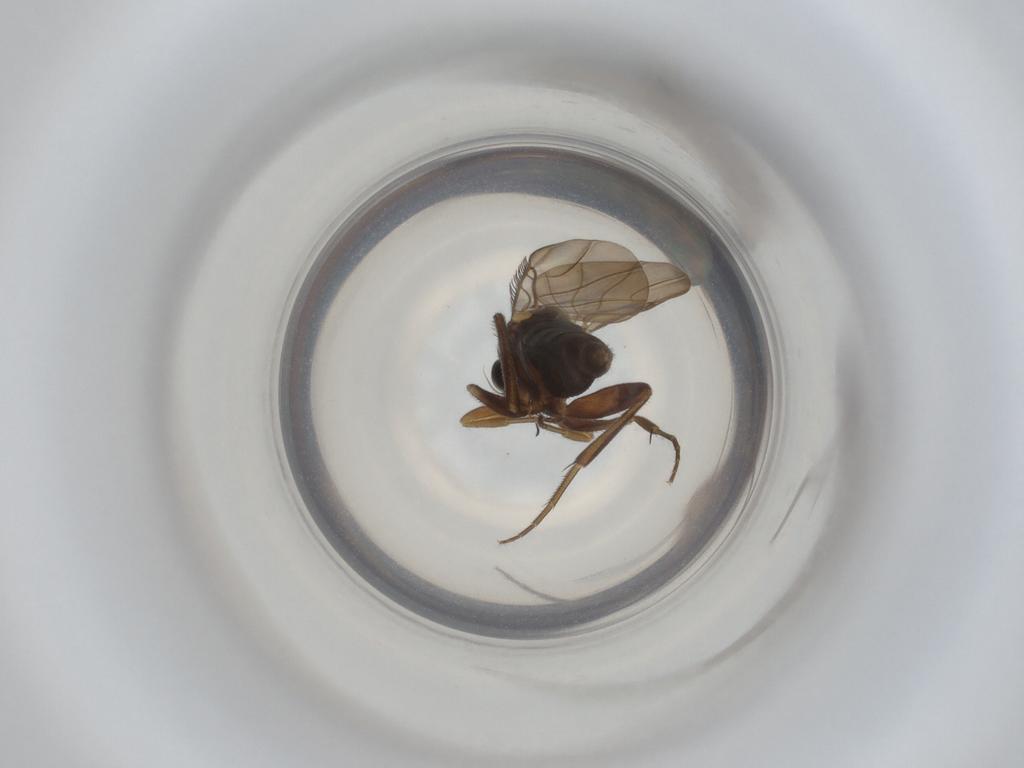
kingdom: Animalia
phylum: Arthropoda
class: Insecta
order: Diptera
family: Phoridae
